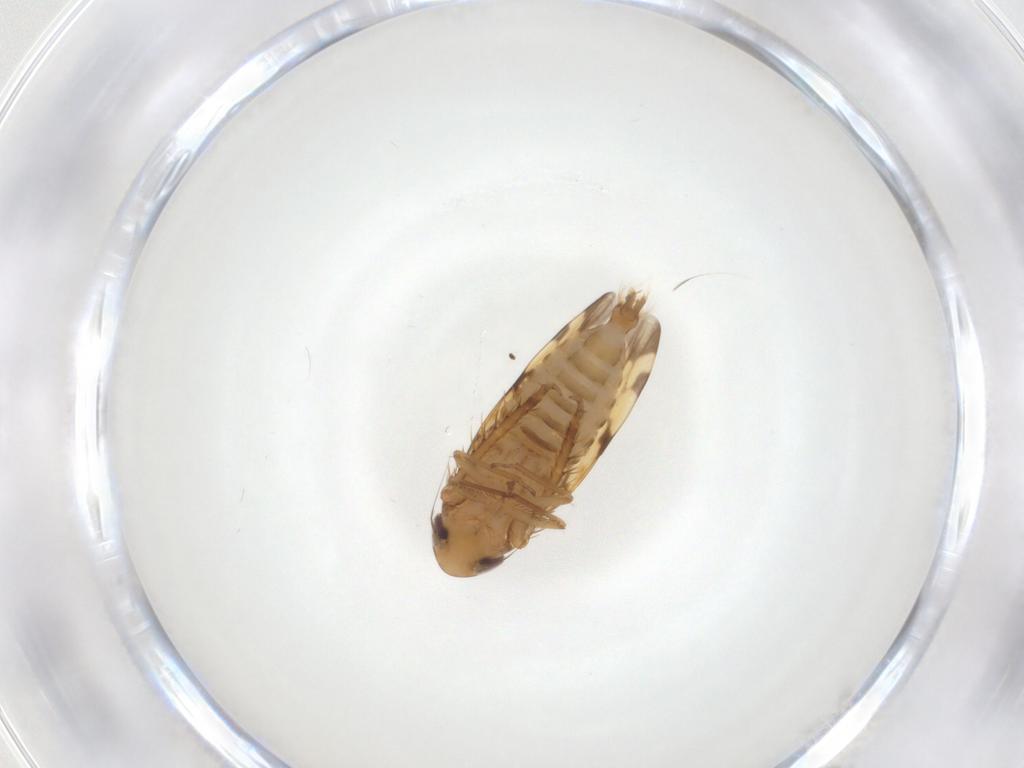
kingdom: Animalia
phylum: Arthropoda
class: Insecta
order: Hemiptera
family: Cicadellidae
